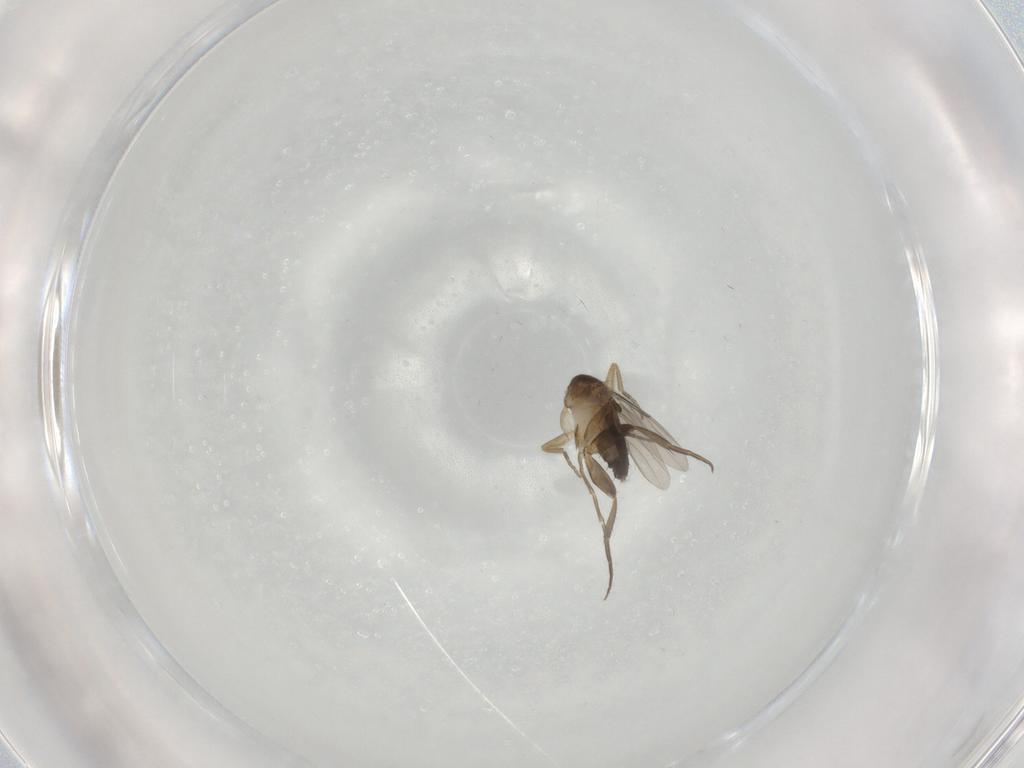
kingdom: Animalia
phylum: Arthropoda
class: Insecta
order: Diptera
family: Phoridae
